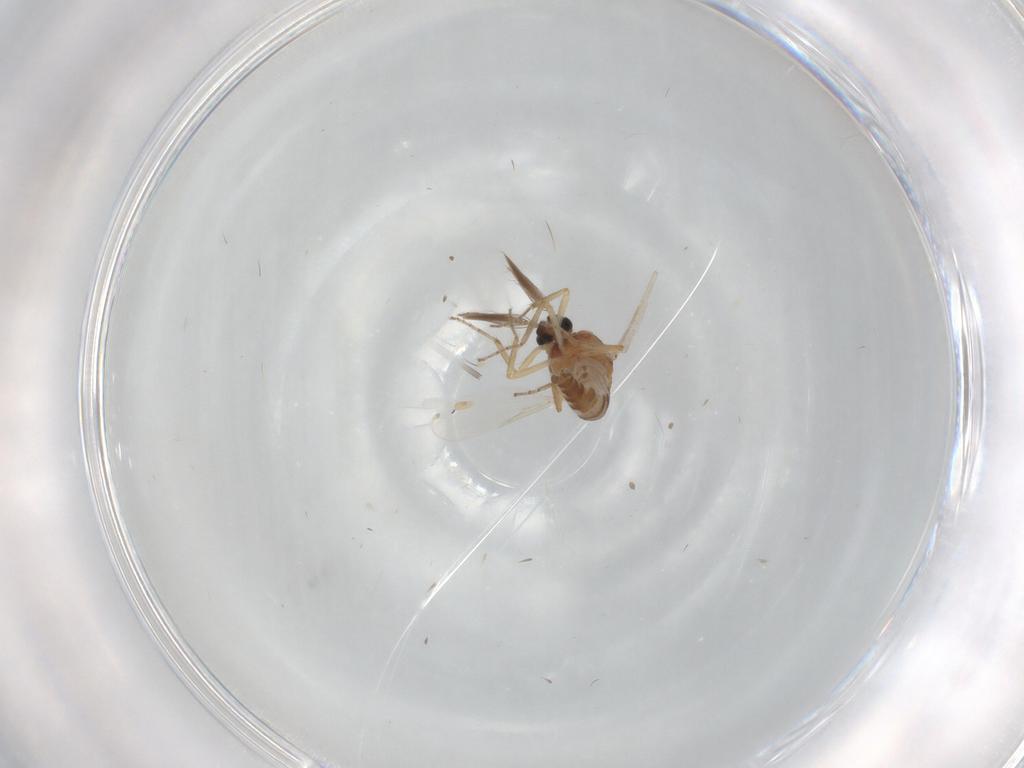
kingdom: Animalia
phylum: Arthropoda
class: Insecta
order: Diptera
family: Ceratopogonidae
